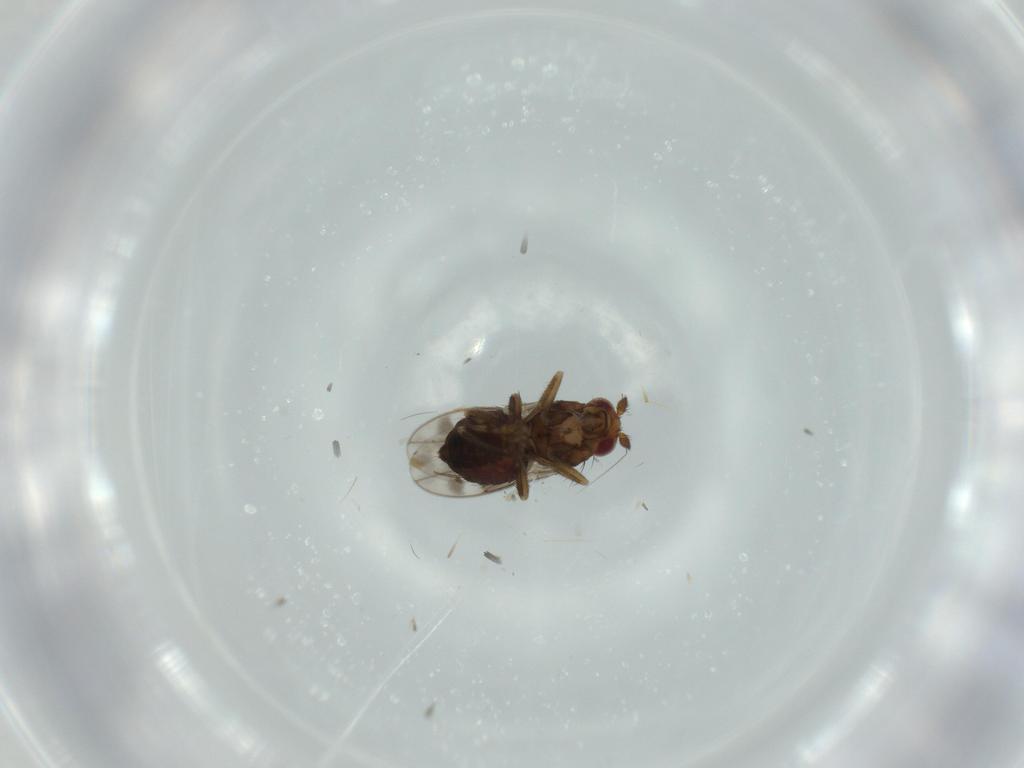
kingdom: Animalia
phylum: Arthropoda
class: Insecta
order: Diptera
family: Sphaeroceridae
